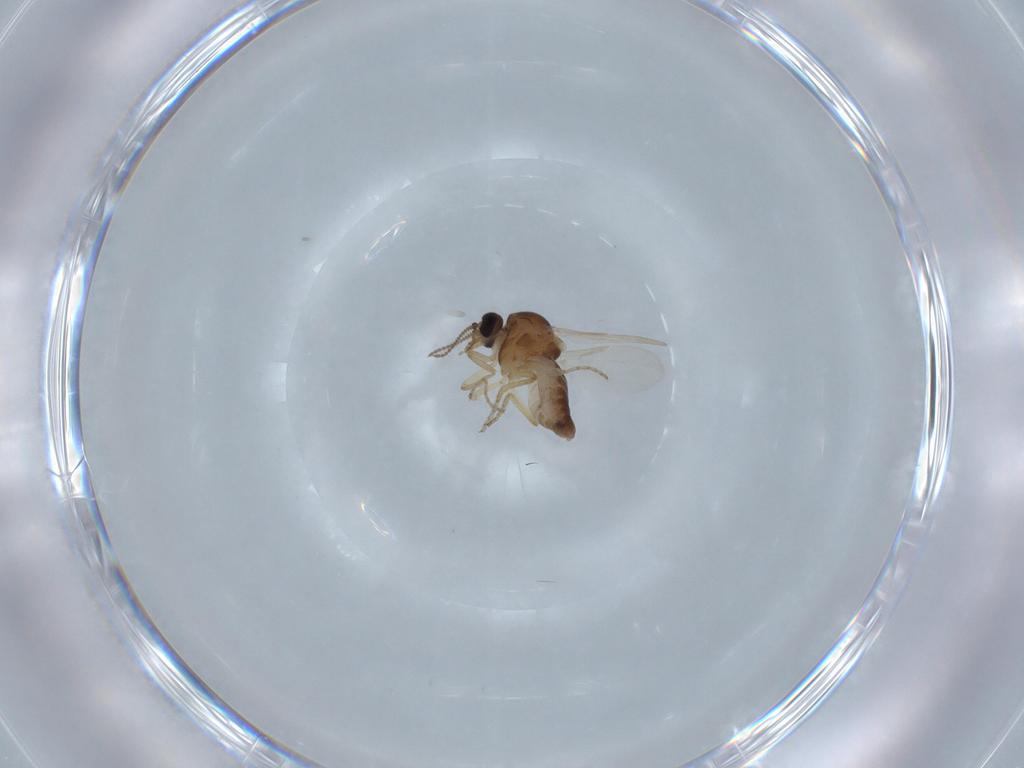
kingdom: Animalia
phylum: Arthropoda
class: Insecta
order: Diptera
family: Ceratopogonidae
